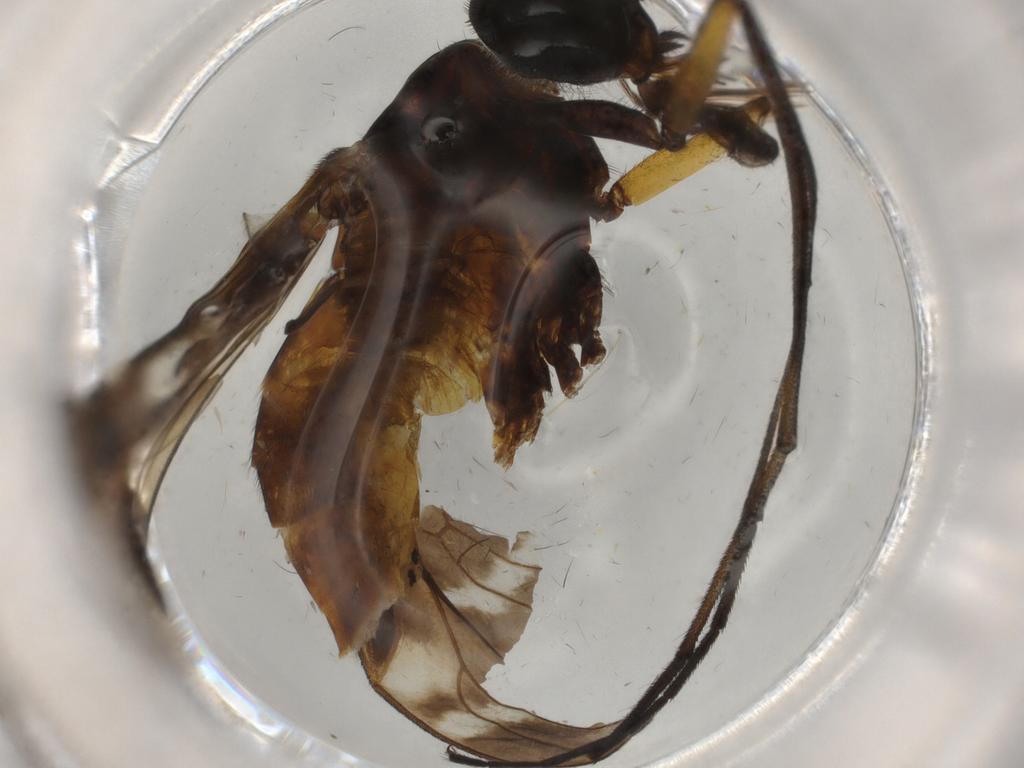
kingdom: Animalia
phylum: Arthropoda
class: Insecta
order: Diptera
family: Athericidae
